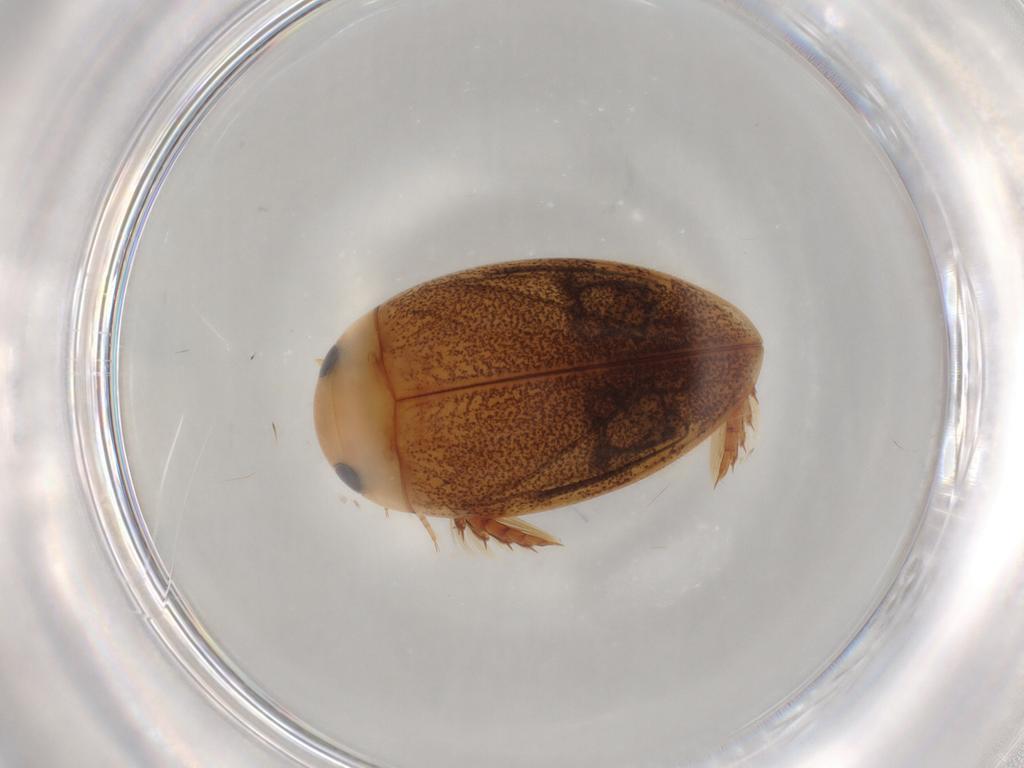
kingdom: Animalia
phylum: Arthropoda
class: Insecta
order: Coleoptera
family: Dytiscidae
